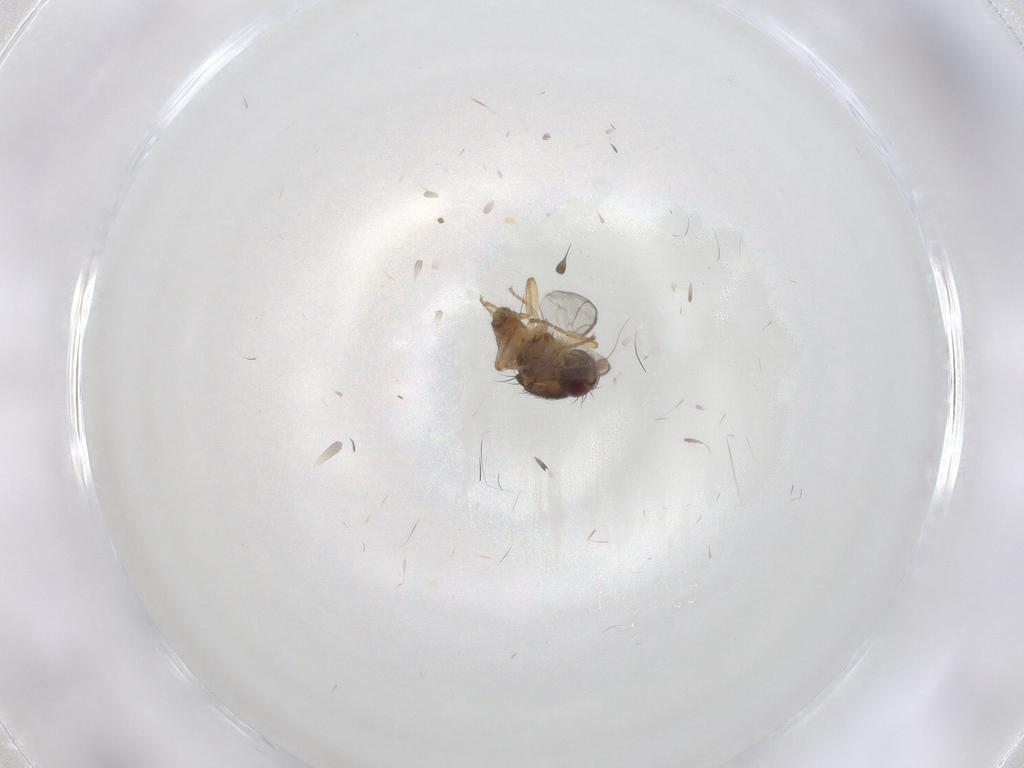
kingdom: Animalia
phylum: Arthropoda
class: Insecta
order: Diptera
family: Sphaeroceridae
